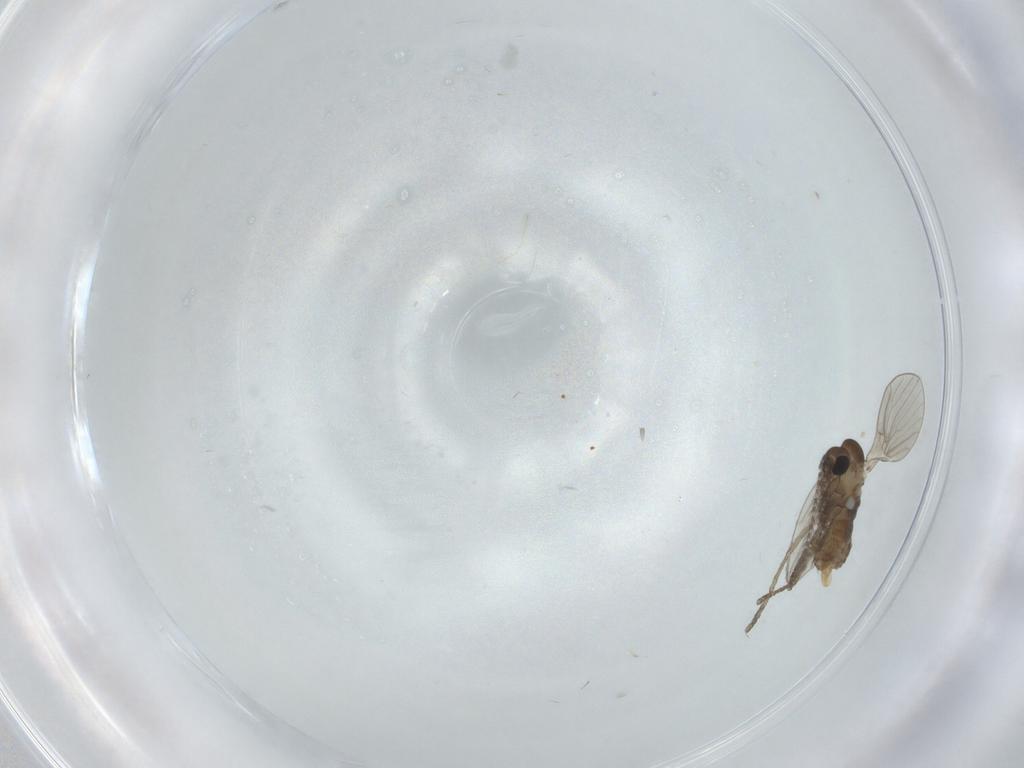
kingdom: Animalia
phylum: Arthropoda
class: Insecta
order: Diptera
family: Psychodidae
